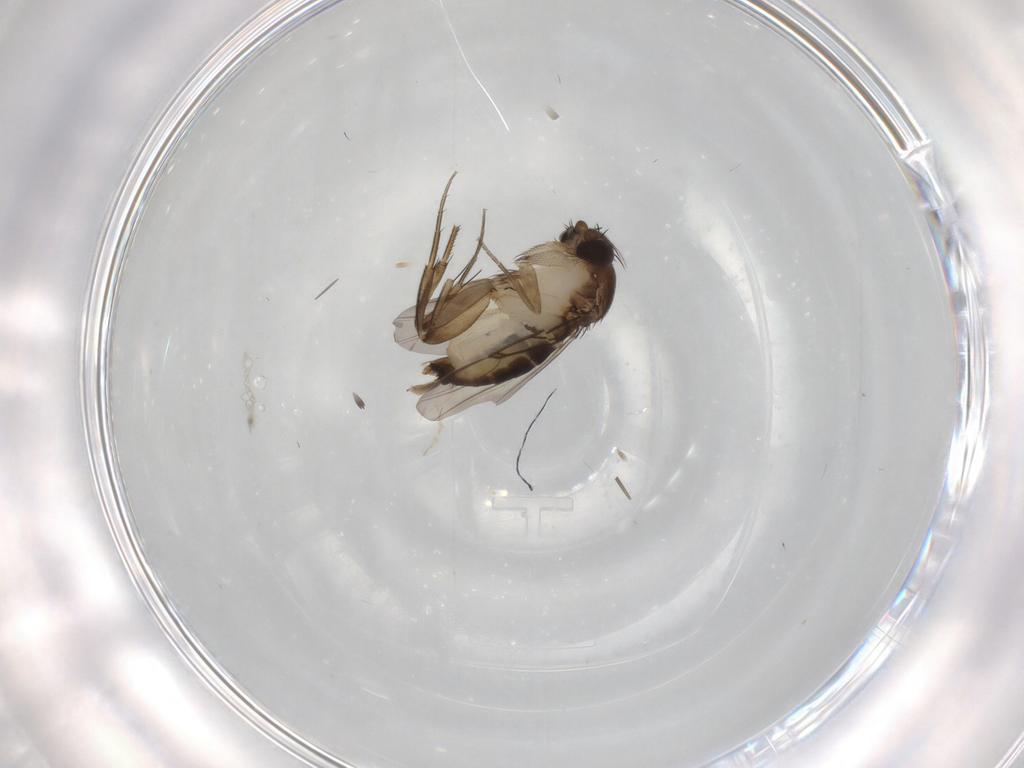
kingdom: Animalia
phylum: Arthropoda
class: Insecta
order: Diptera
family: Phoridae
